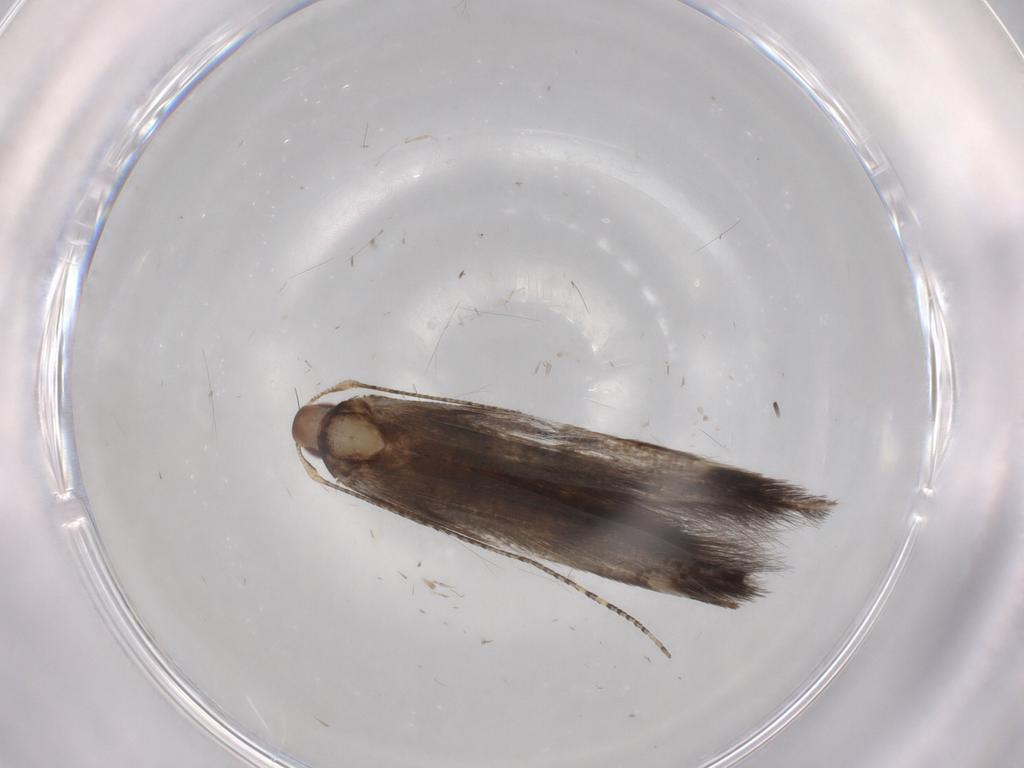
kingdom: Animalia
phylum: Arthropoda
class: Insecta
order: Lepidoptera
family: Cosmopterigidae
